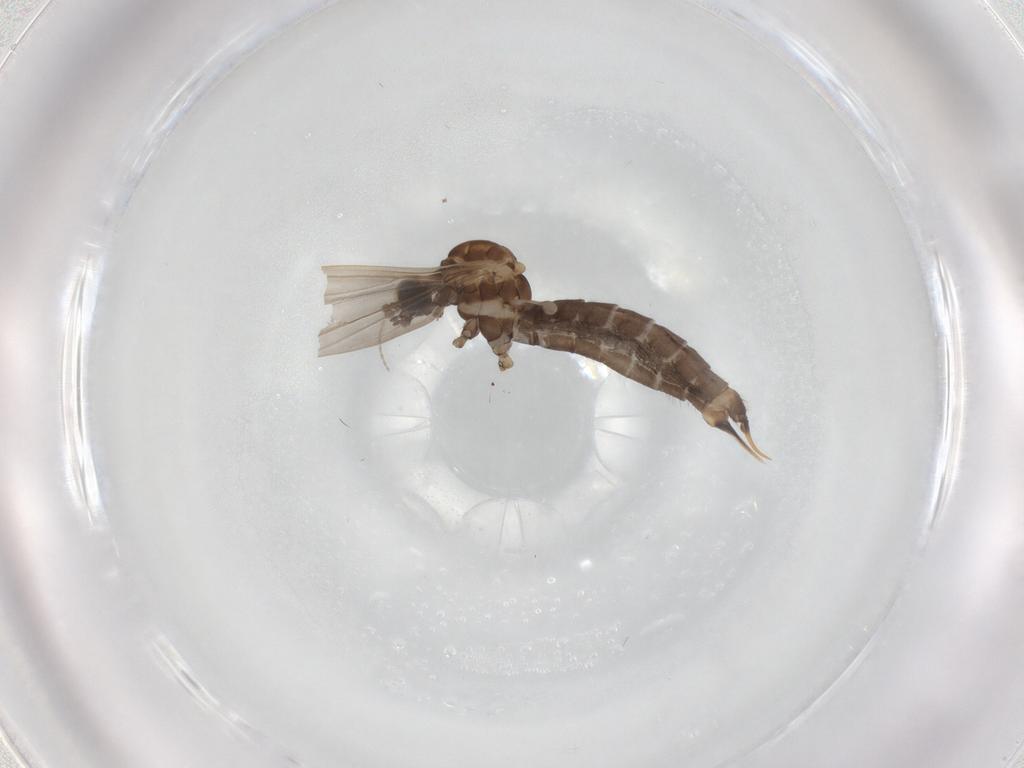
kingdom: Animalia
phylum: Arthropoda
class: Insecta
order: Diptera
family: Limoniidae
